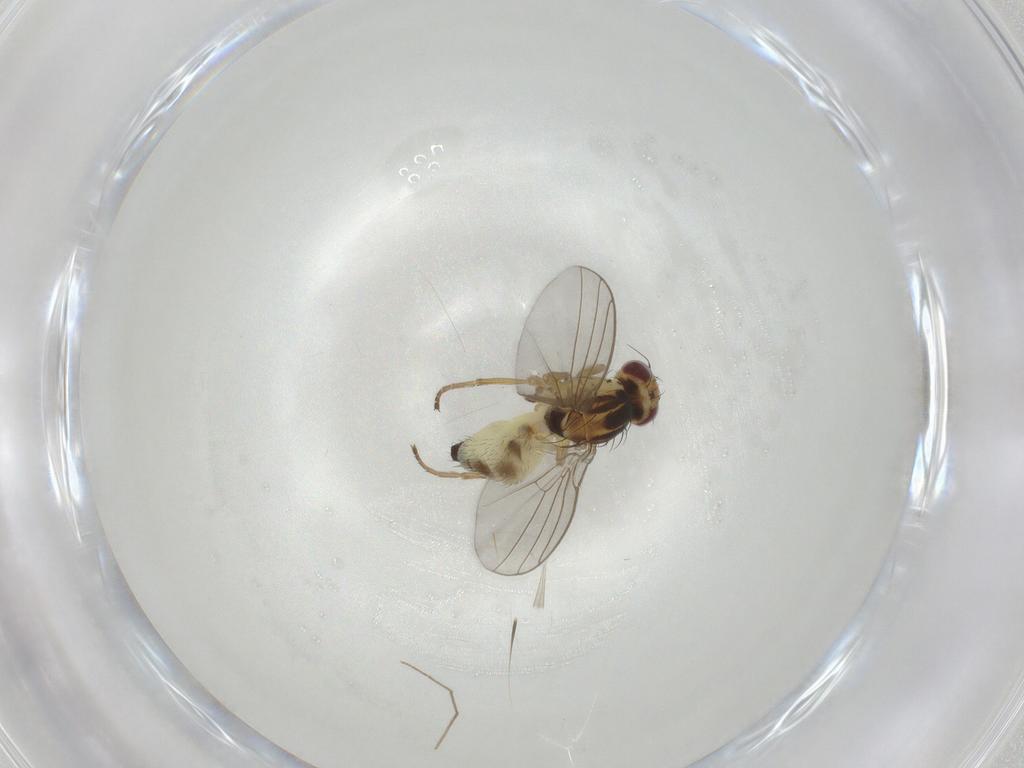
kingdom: Animalia
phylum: Arthropoda
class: Insecta
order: Diptera
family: Agromyzidae
